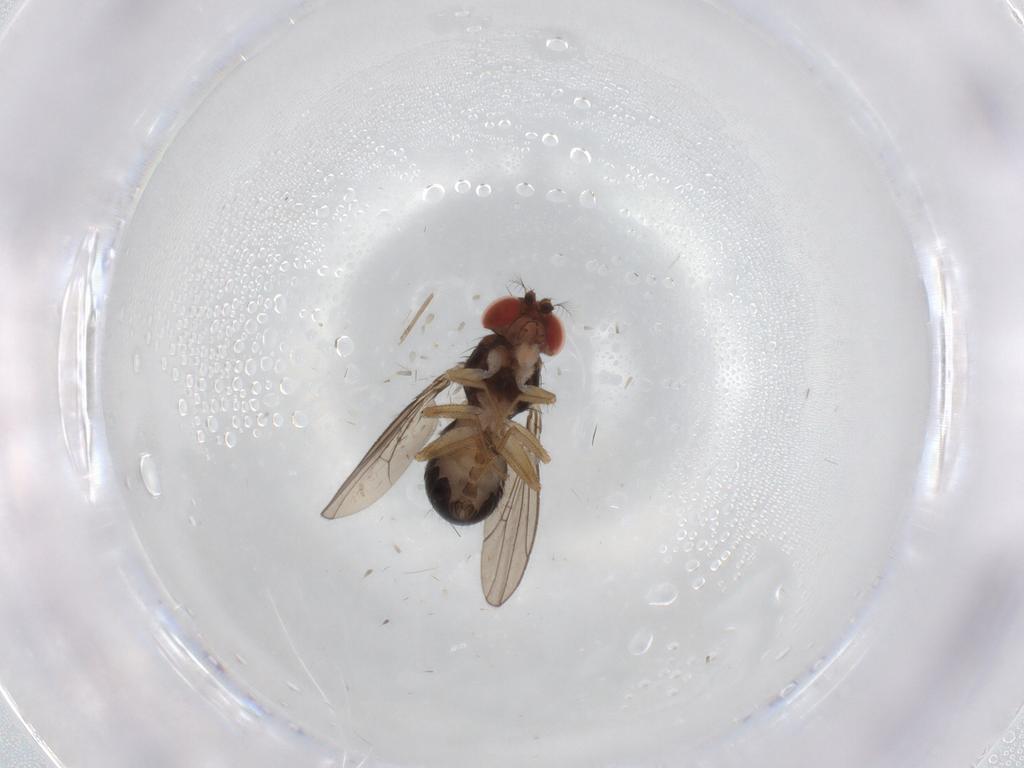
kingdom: Animalia
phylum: Arthropoda
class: Insecta
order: Diptera
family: Drosophilidae
